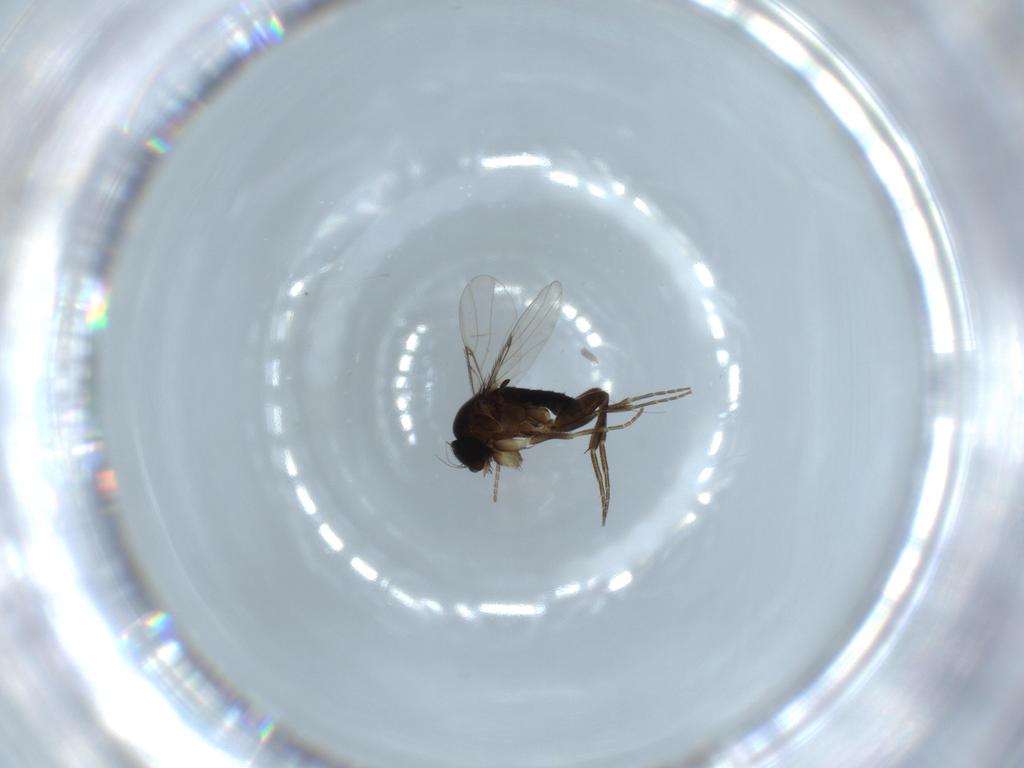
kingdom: Animalia
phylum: Arthropoda
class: Insecta
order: Diptera
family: Phoridae
